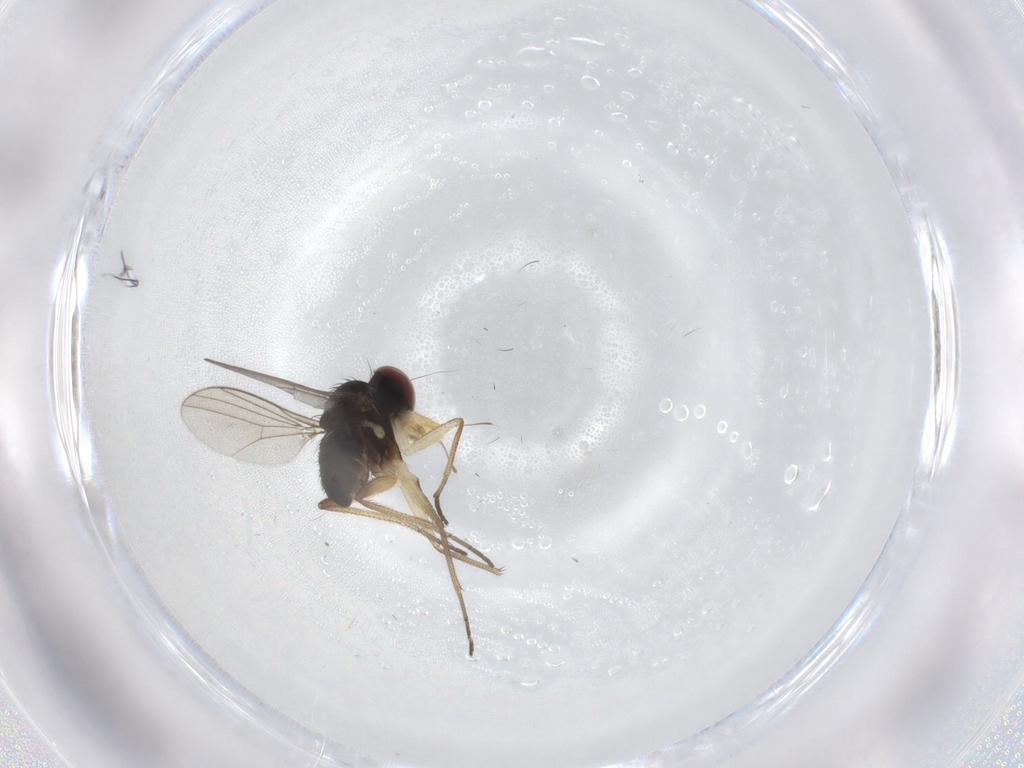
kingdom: Animalia
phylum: Arthropoda
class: Insecta
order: Diptera
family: Dolichopodidae
